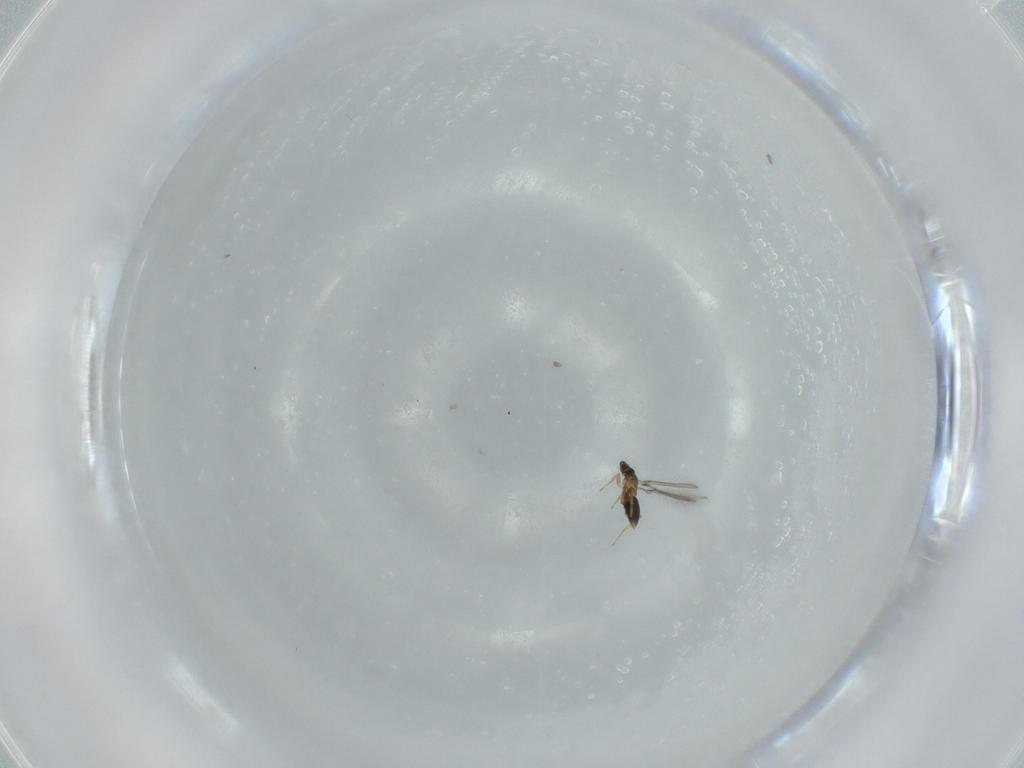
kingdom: Animalia
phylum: Arthropoda
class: Insecta
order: Hymenoptera
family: Mymaridae
